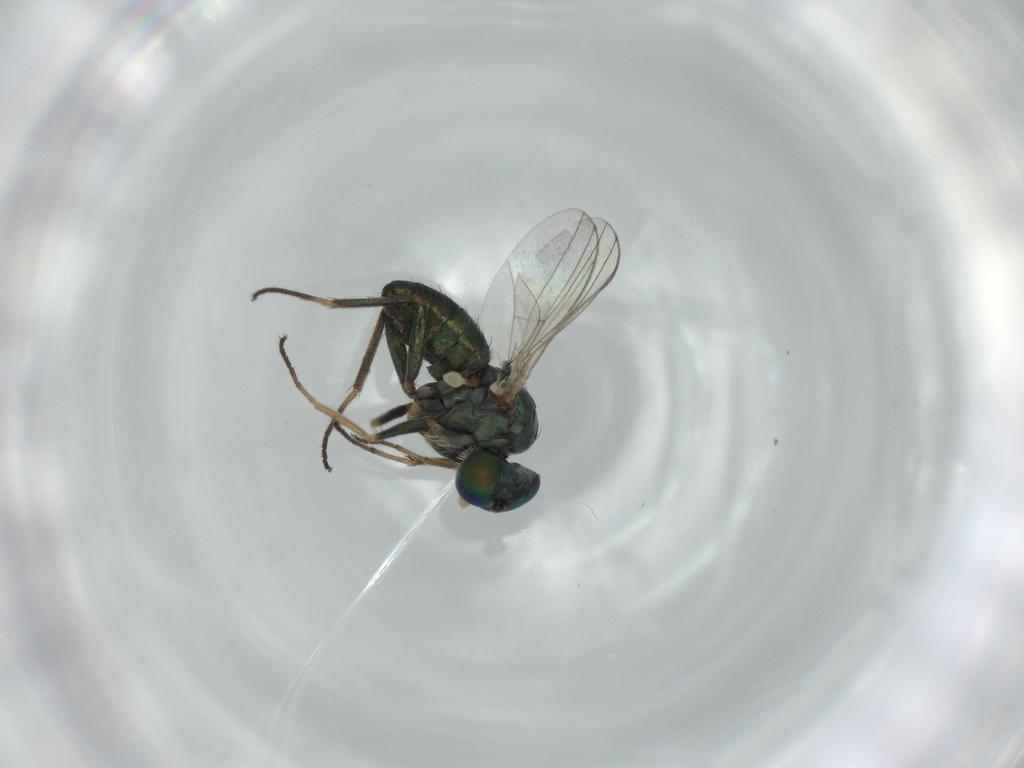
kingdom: Animalia
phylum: Arthropoda
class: Insecta
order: Diptera
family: Dolichopodidae
